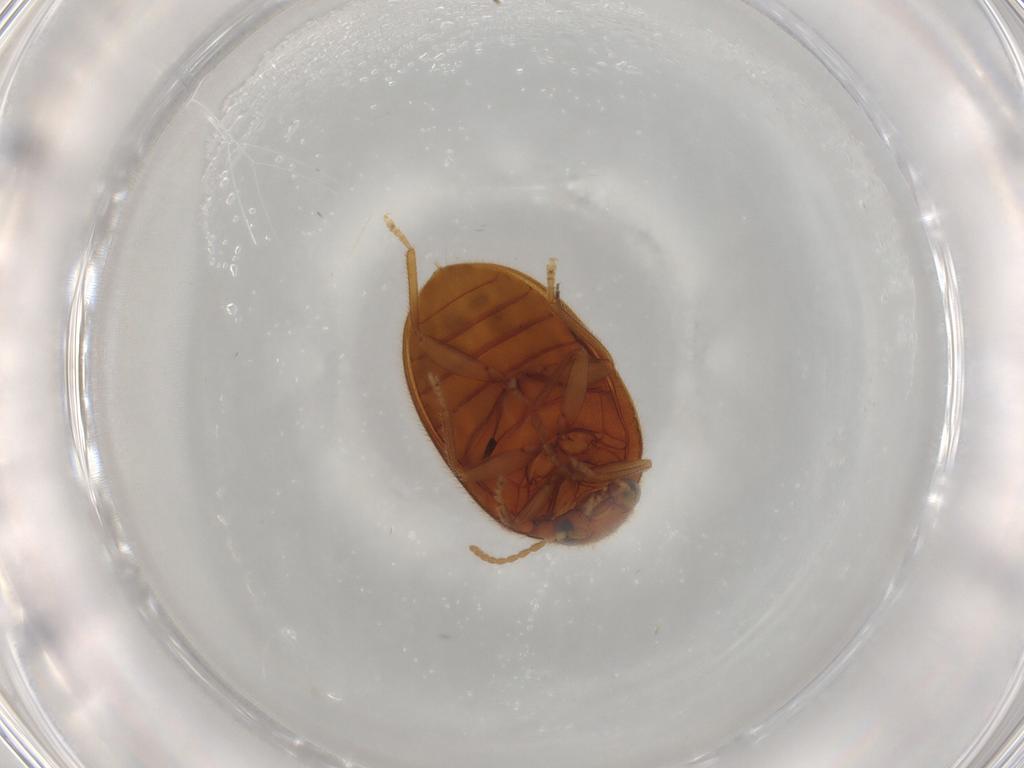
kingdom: Animalia
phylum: Arthropoda
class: Insecta
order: Coleoptera
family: Scirtidae
